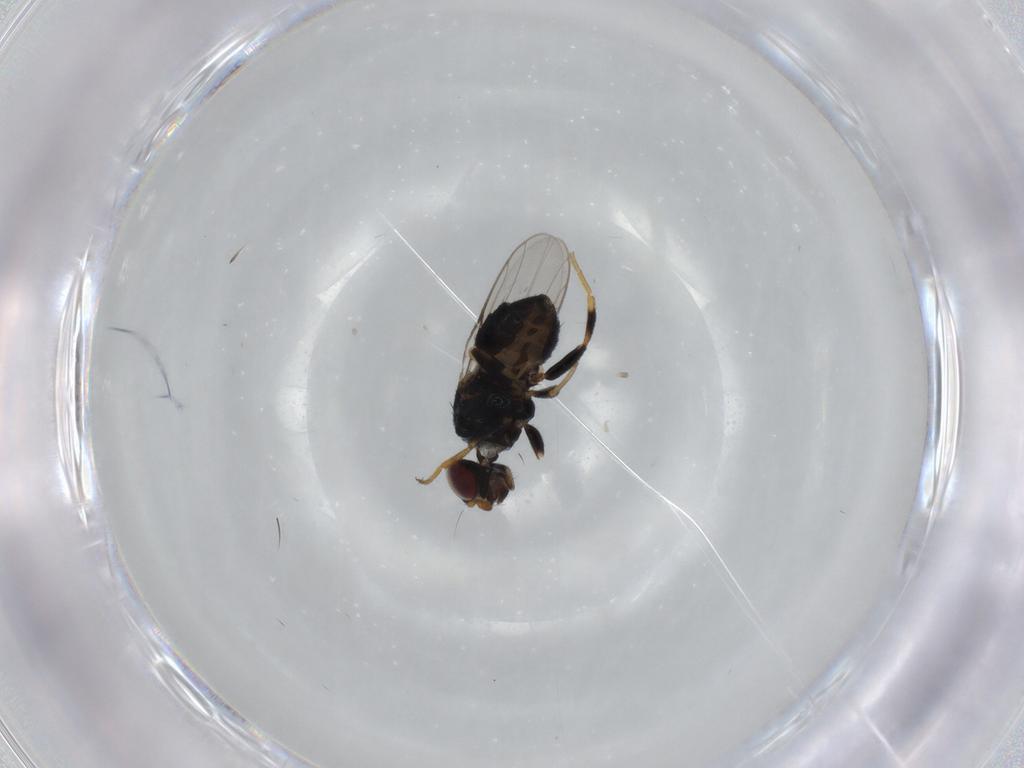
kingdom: Animalia
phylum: Arthropoda
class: Insecta
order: Diptera
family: Chloropidae
